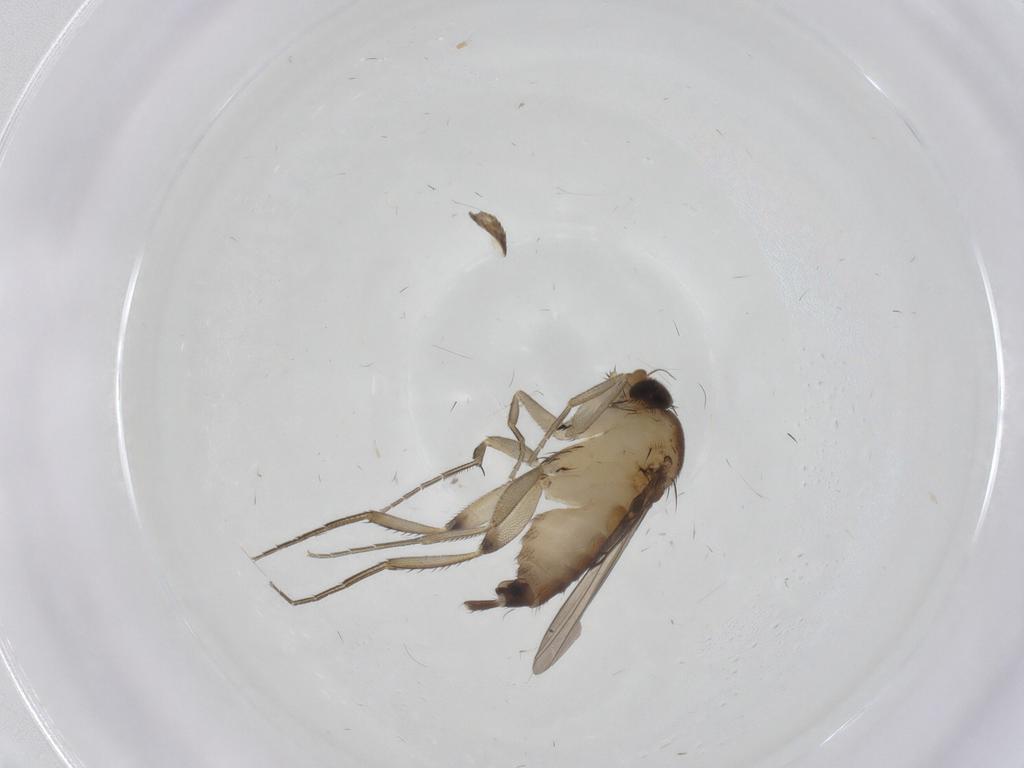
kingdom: Animalia
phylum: Arthropoda
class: Insecta
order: Diptera
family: Phoridae
